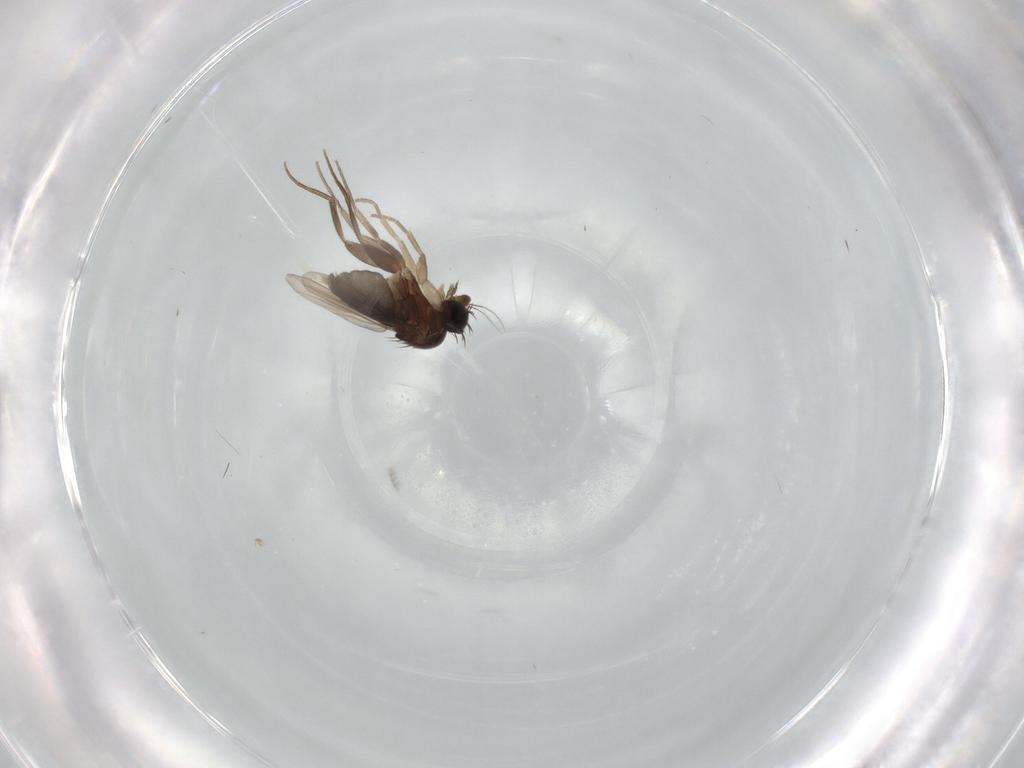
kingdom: Animalia
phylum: Arthropoda
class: Insecta
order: Diptera
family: Phoridae
